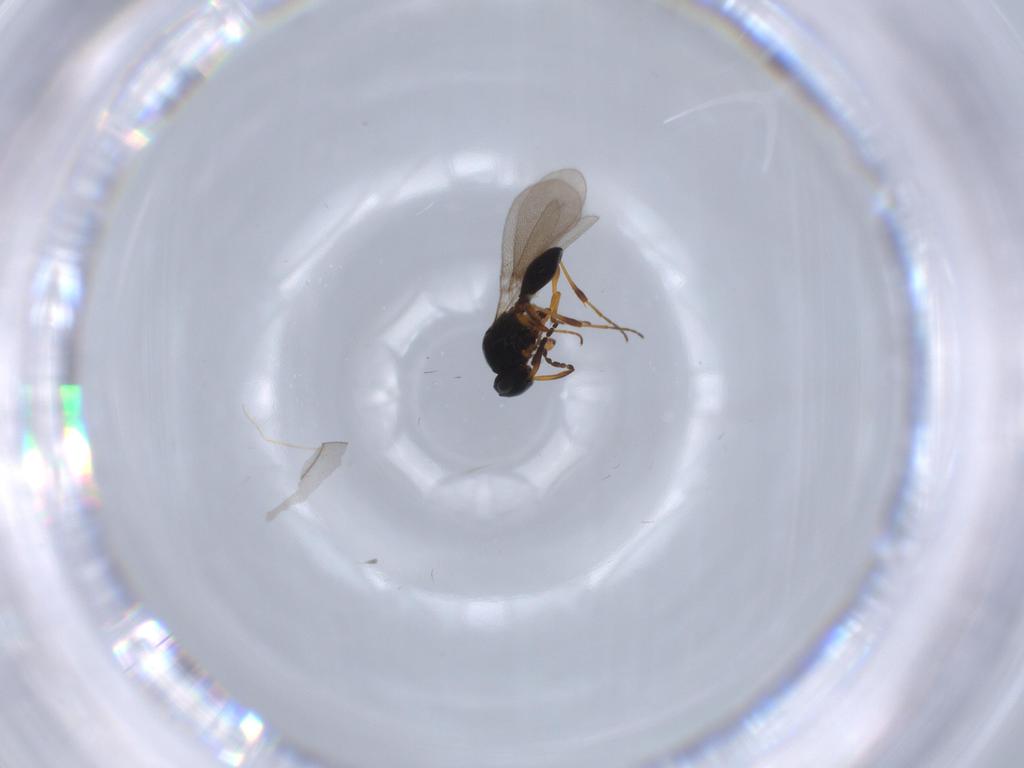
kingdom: Animalia
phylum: Arthropoda
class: Insecta
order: Hymenoptera
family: Platygastridae
